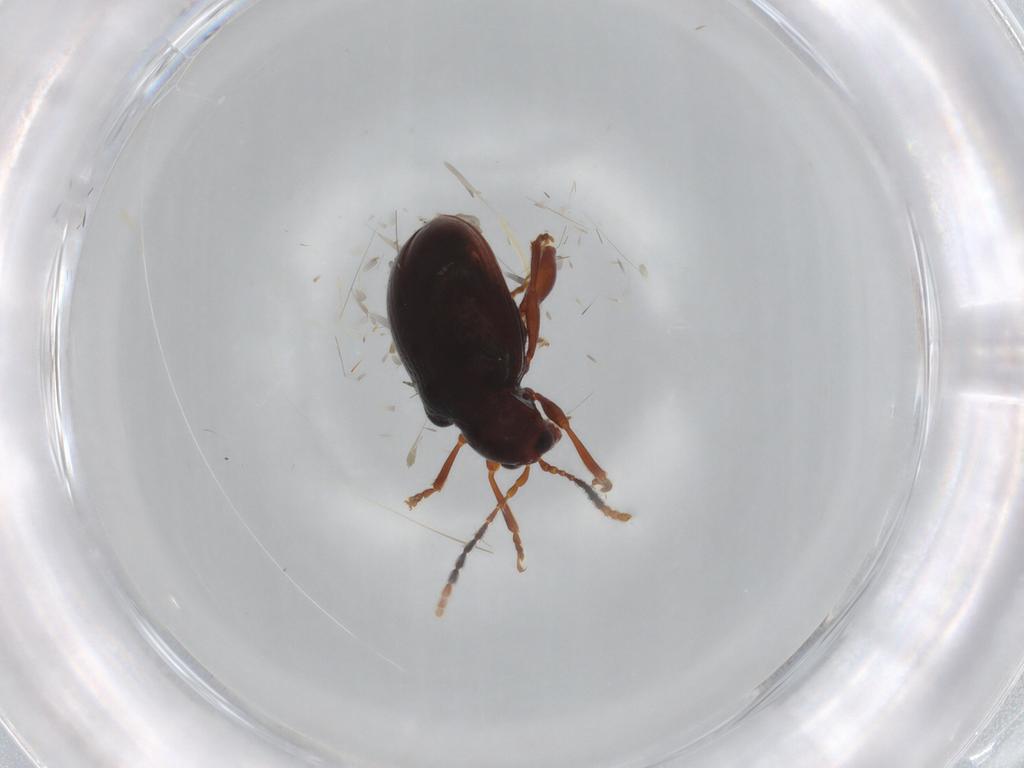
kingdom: Animalia
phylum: Arthropoda
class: Insecta
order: Coleoptera
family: Chrysomelidae
